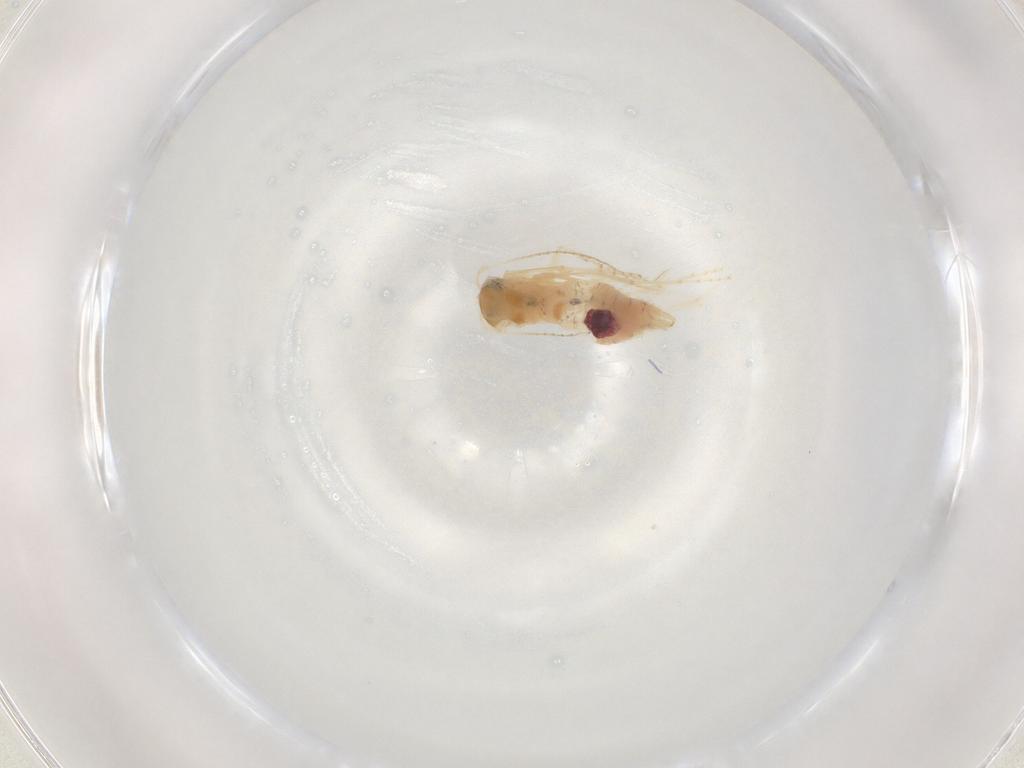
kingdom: Animalia
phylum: Arthropoda
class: Insecta
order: Lepidoptera
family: Bucculatricidae
